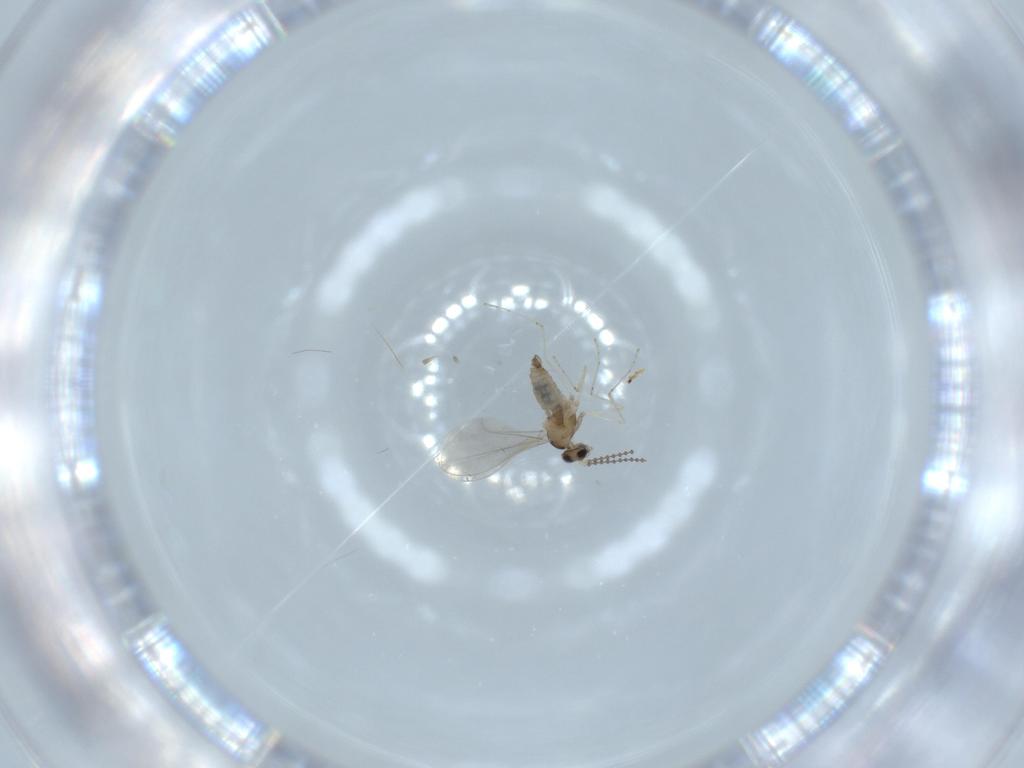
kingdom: Animalia
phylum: Arthropoda
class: Insecta
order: Diptera
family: Cecidomyiidae
